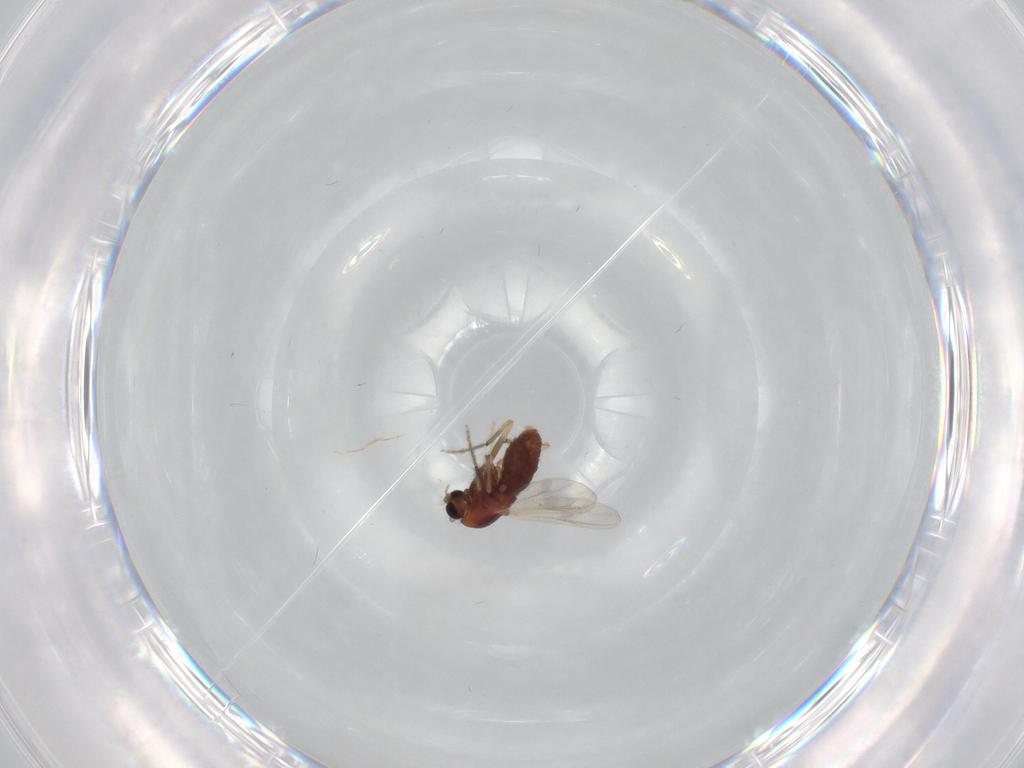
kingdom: Animalia
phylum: Arthropoda
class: Insecta
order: Diptera
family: Chironomidae
